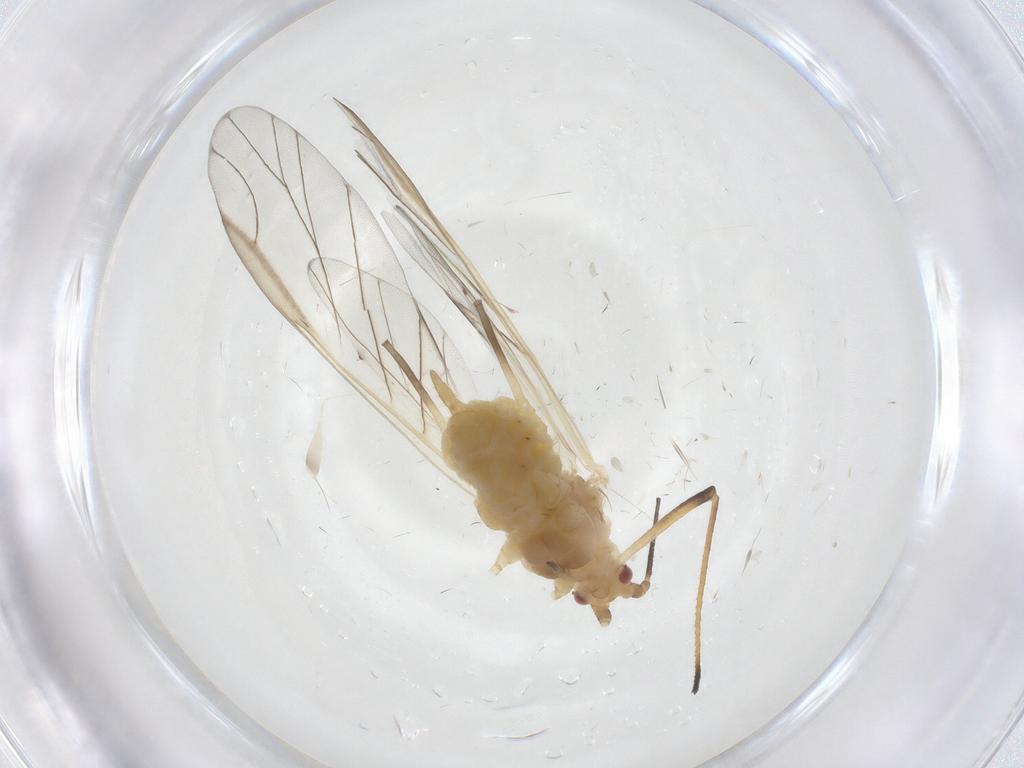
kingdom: Animalia
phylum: Arthropoda
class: Insecta
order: Hemiptera
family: Aphididae
